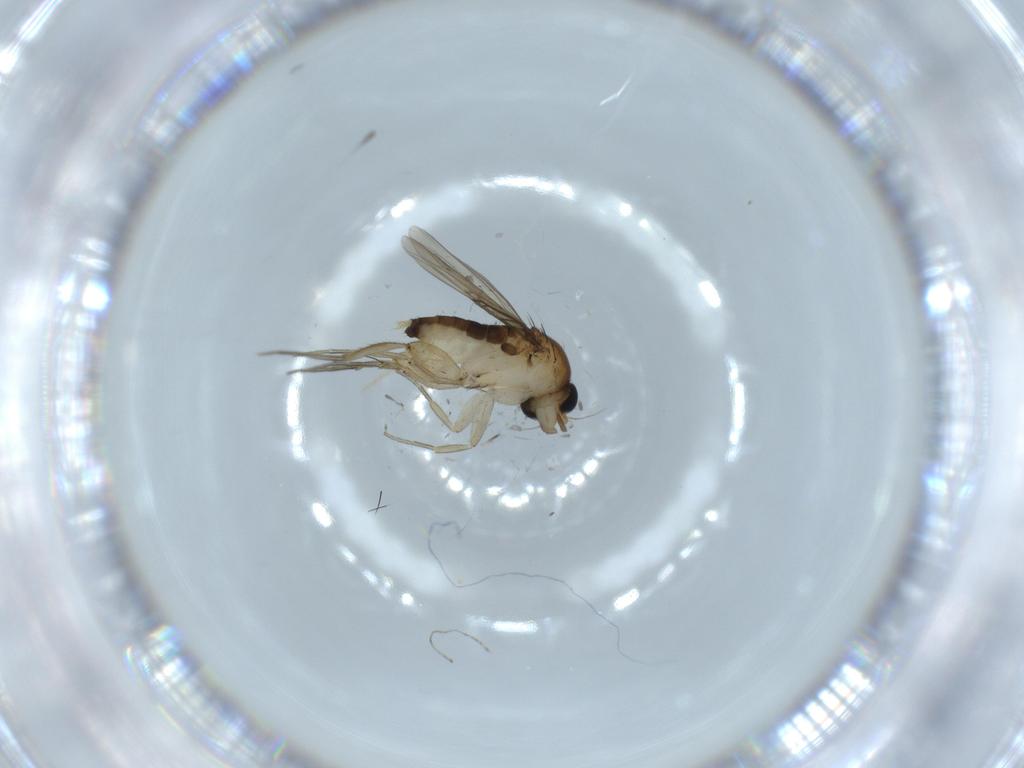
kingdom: Animalia
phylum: Arthropoda
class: Insecta
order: Diptera
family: Phoridae
